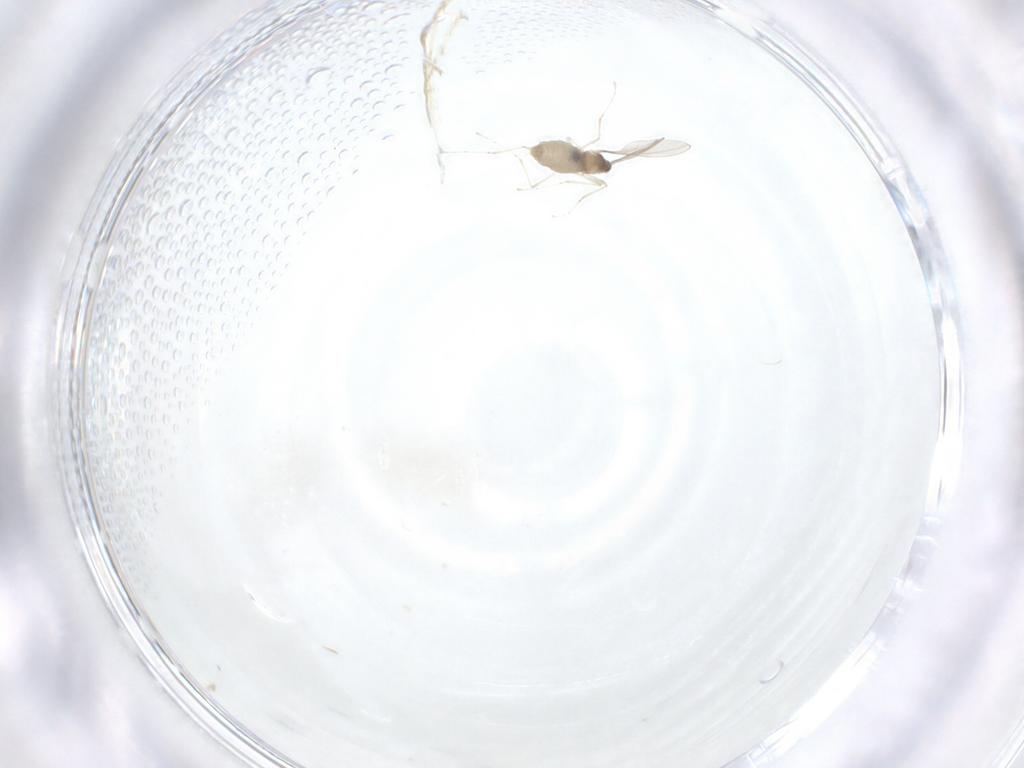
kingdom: Animalia
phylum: Arthropoda
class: Insecta
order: Diptera
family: Cecidomyiidae
